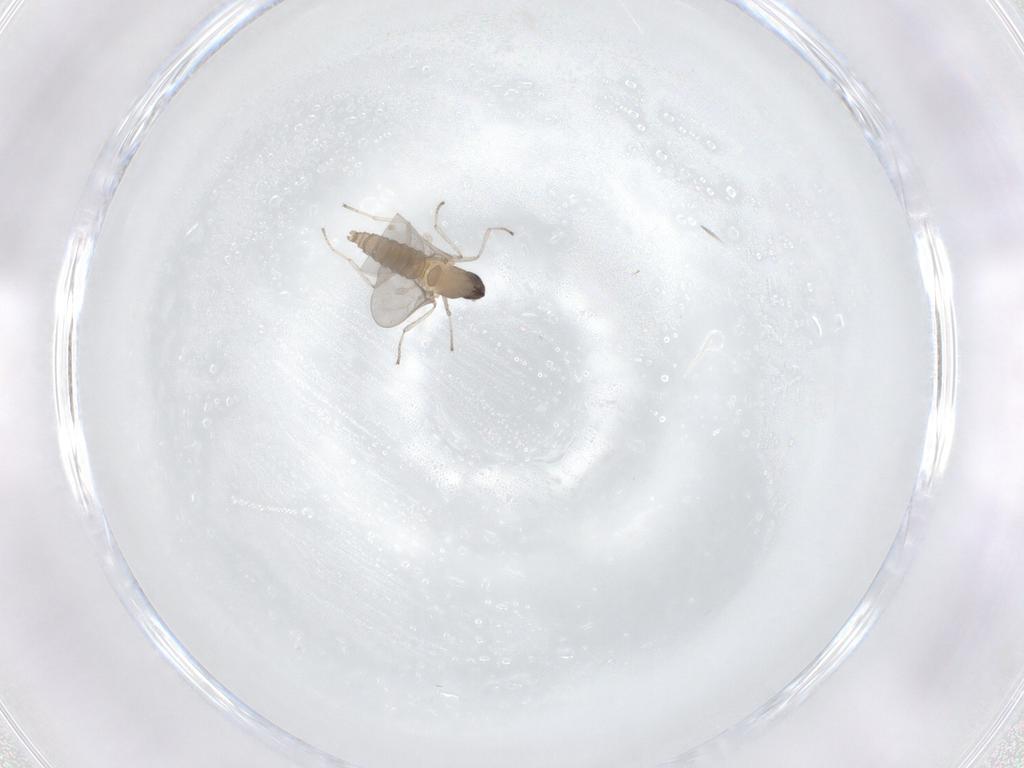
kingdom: Animalia
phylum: Arthropoda
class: Insecta
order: Diptera
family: Cecidomyiidae
